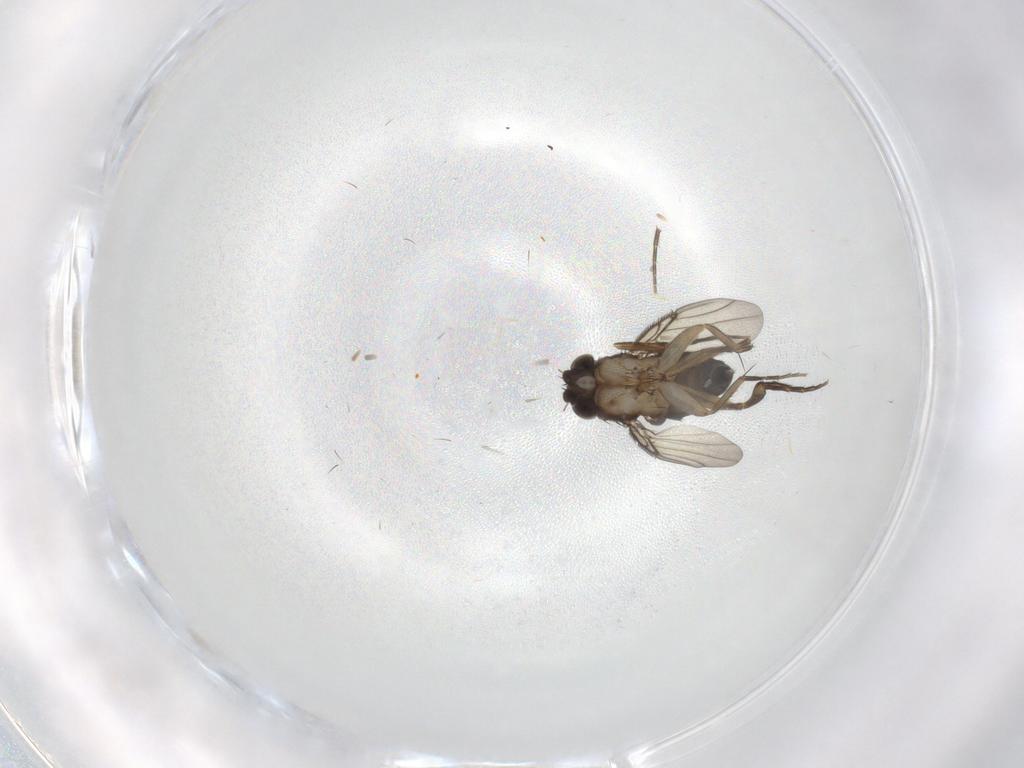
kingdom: Animalia
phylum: Arthropoda
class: Insecta
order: Diptera
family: Phoridae
